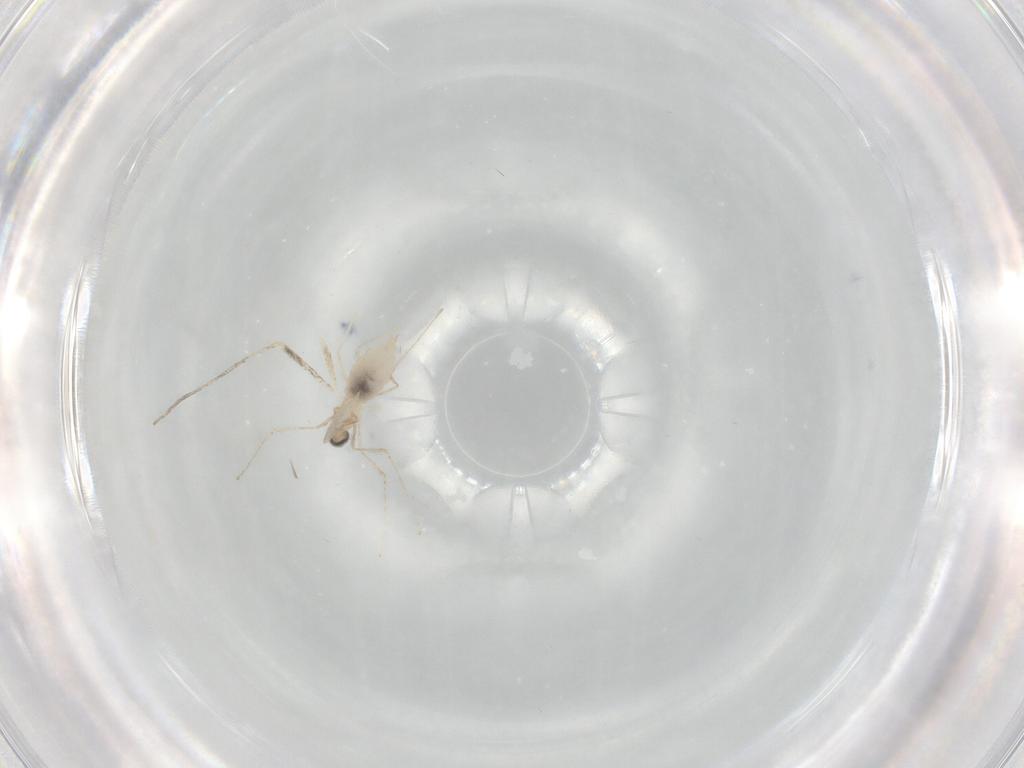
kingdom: Animalia
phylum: Arthropoda
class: Insecta
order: Diptera
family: Cecidomyiidae
